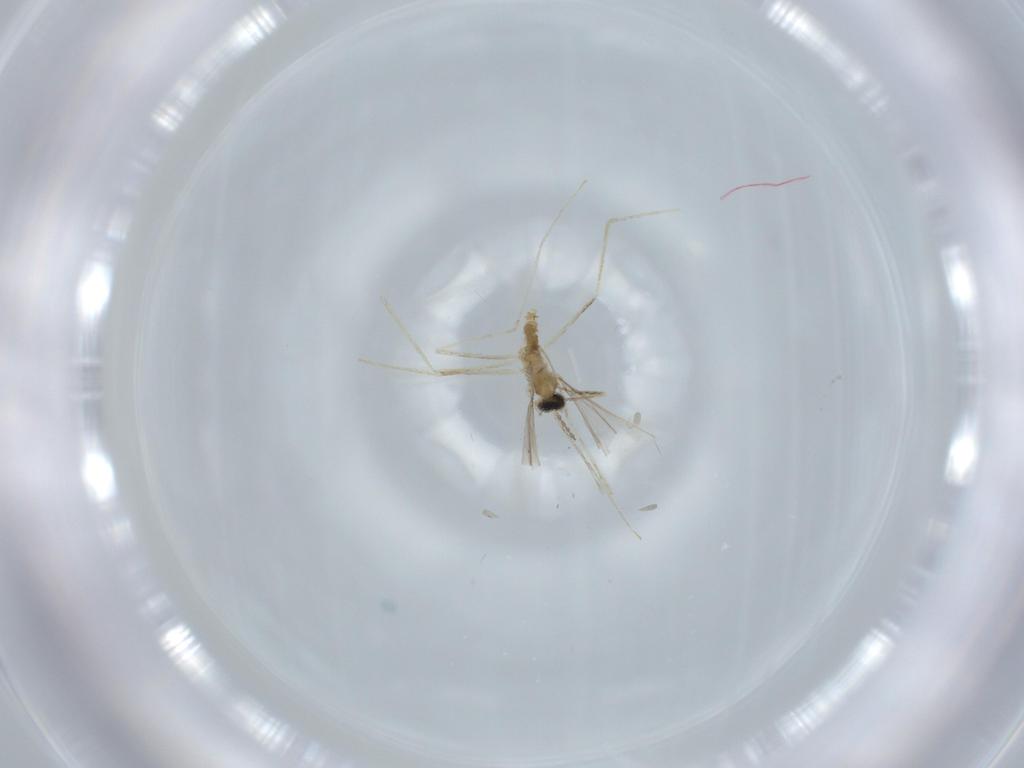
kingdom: Animalia
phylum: Arthropoda
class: Insecta
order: Diptera
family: Cecidomyiidae
